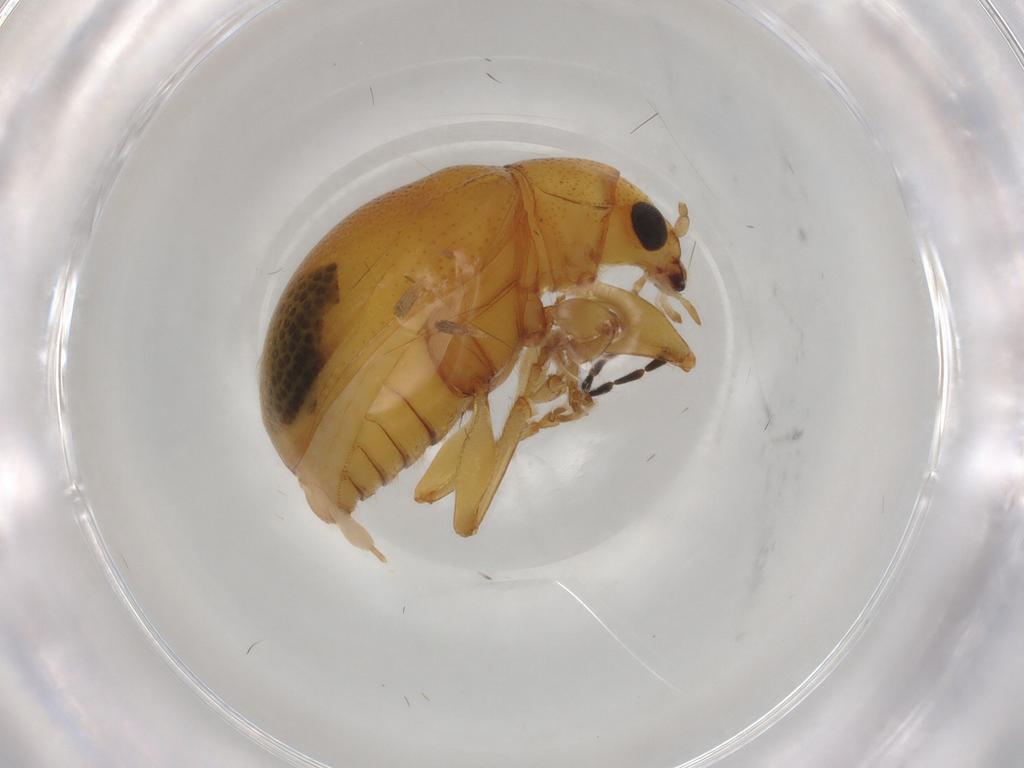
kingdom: Animalia
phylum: Arthropoda
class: Insecta
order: Coleoptera
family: Chrysomelidae
